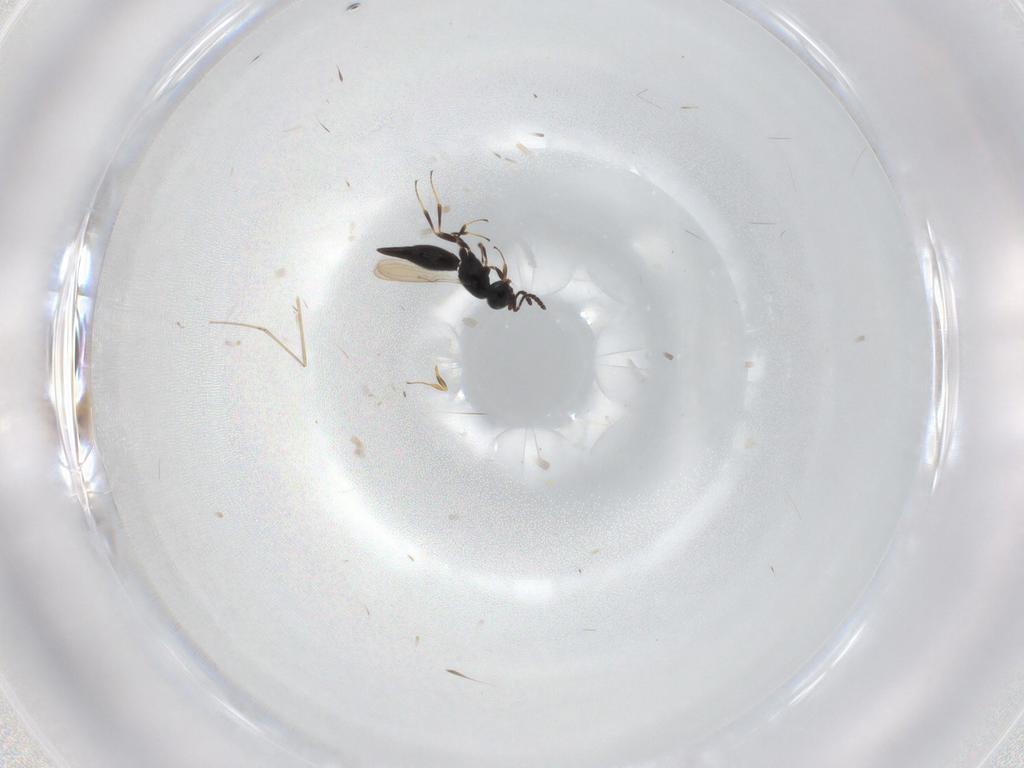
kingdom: Animalia
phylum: Arthropoda
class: Insecta
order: Hymenoptera
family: Scelionidae
